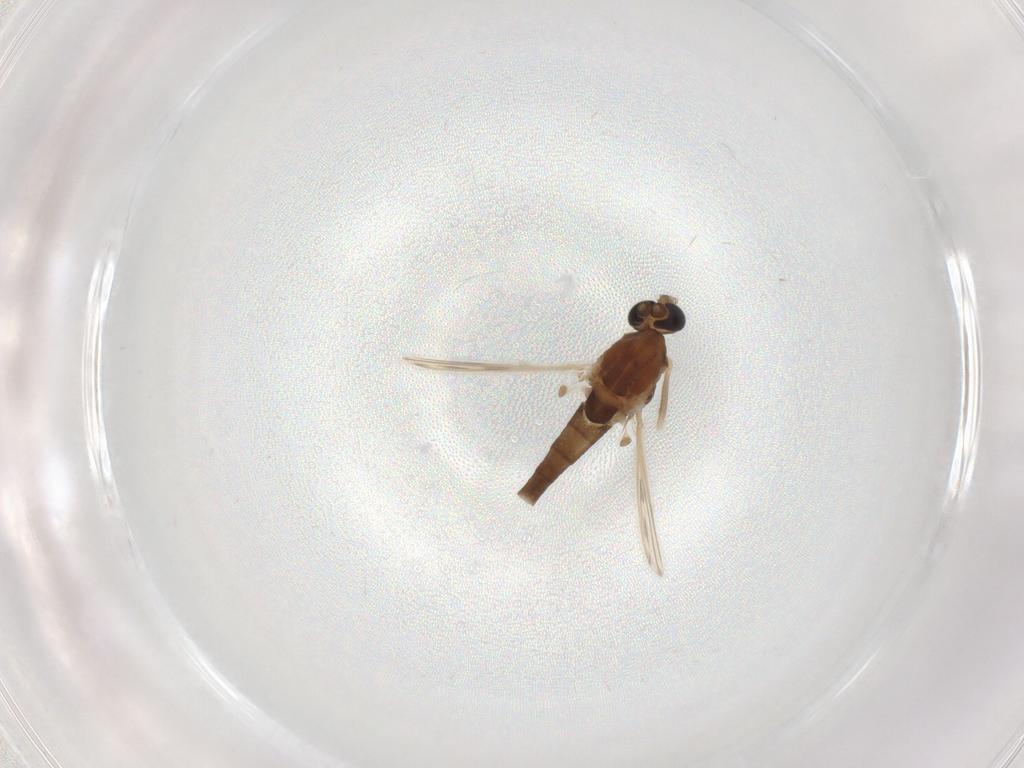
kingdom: Animalia
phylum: Arthropoda
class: Insecta
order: Diptera
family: Chironomidae
